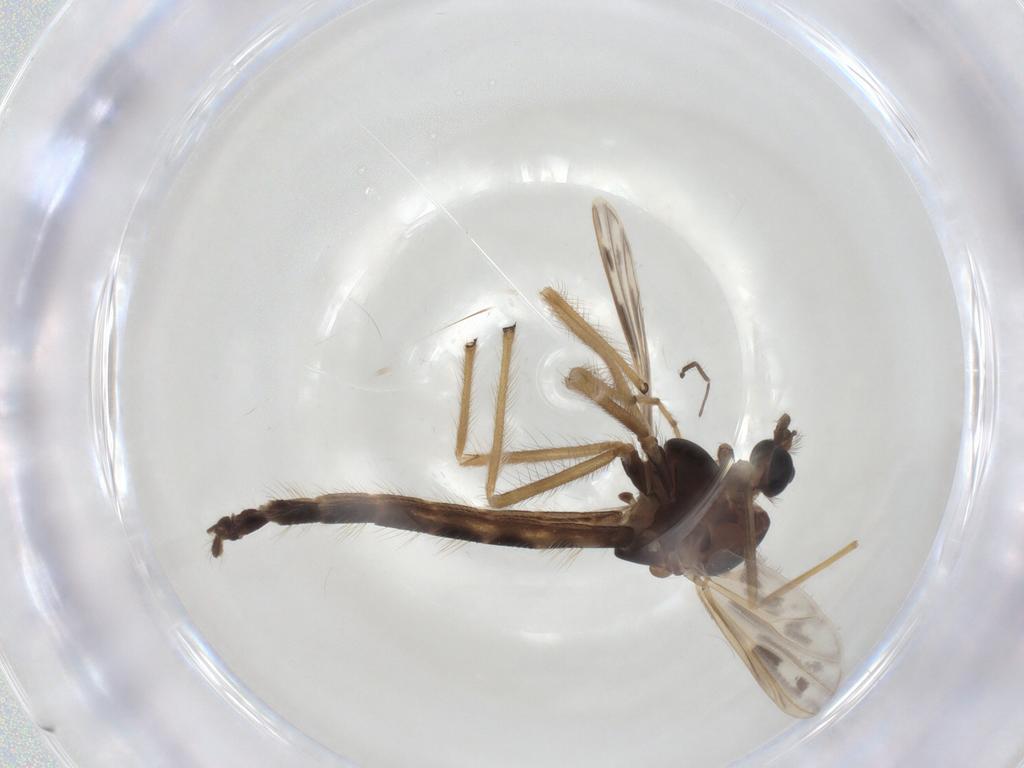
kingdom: Animalia
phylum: Arthropoda
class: Insecta
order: Diptera
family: Chironomidae
